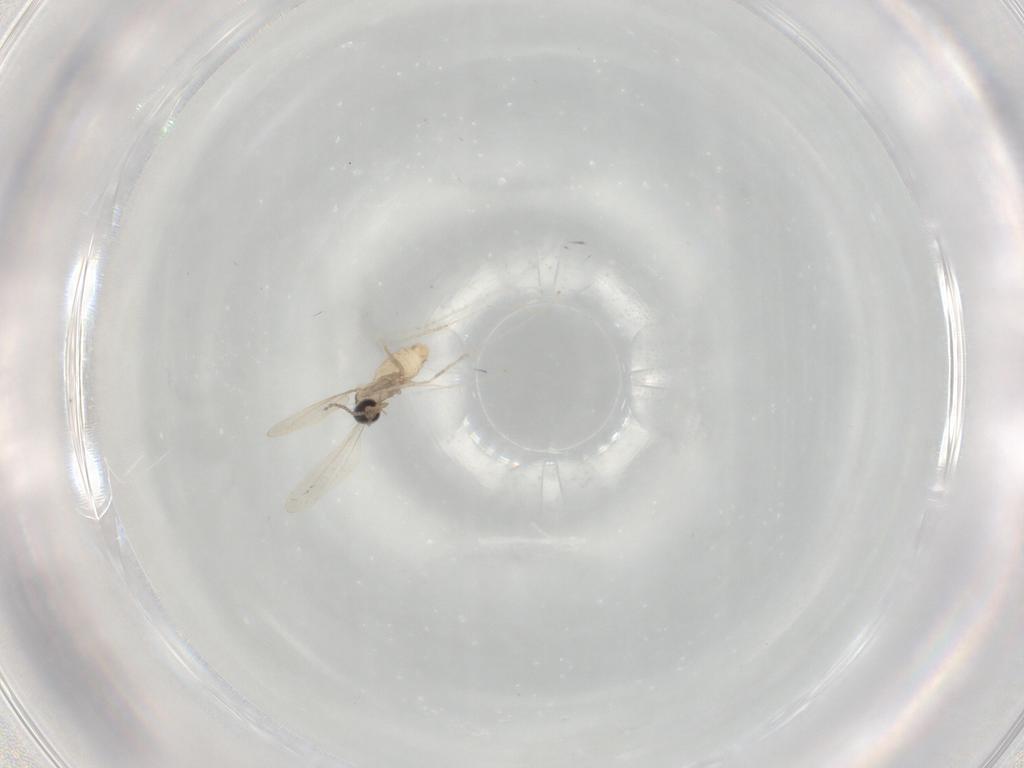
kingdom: Animalia
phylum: Arthropoda
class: Insecta
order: Diptera
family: Cecidomyiidae
